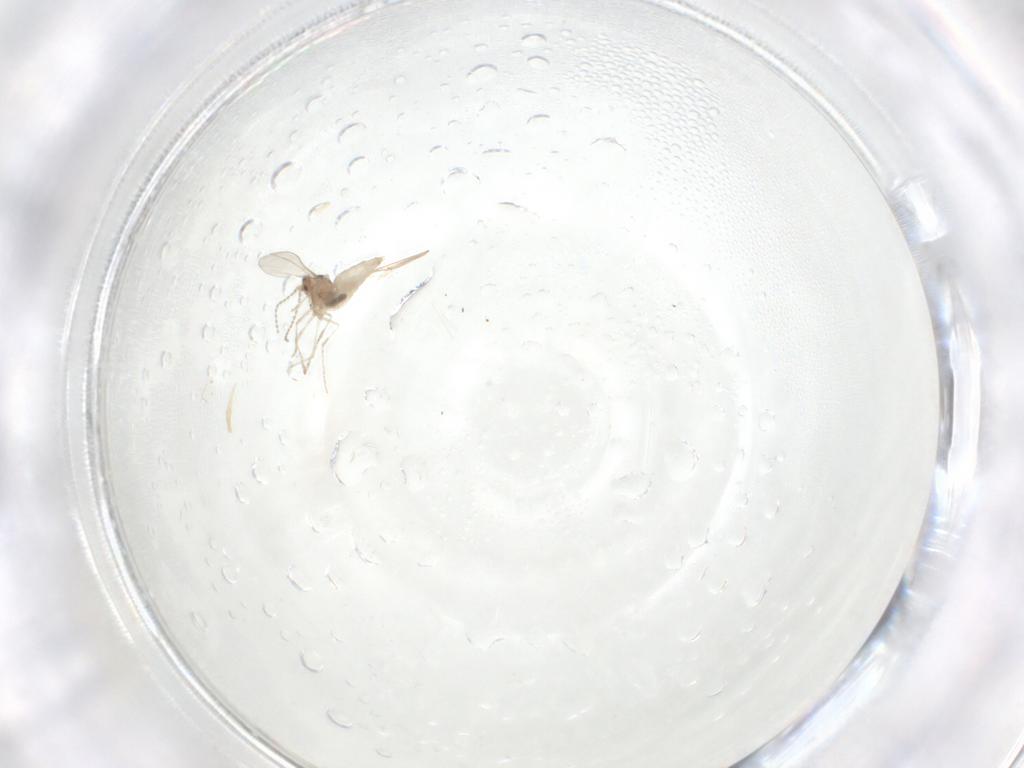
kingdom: Animalia
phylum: Arthropoda
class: Insecta
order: Diptera
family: Cecidomyiidae
